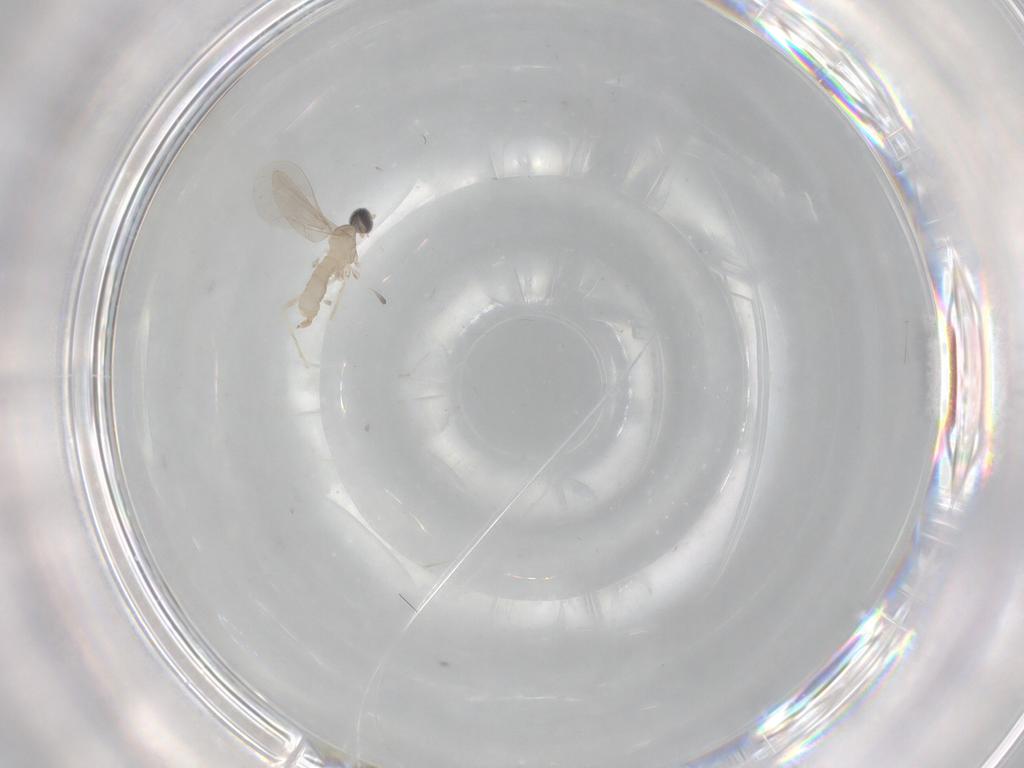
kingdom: Animalia
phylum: Arthropoda
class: Insecta
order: Diptera
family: Cecidomyiidae
